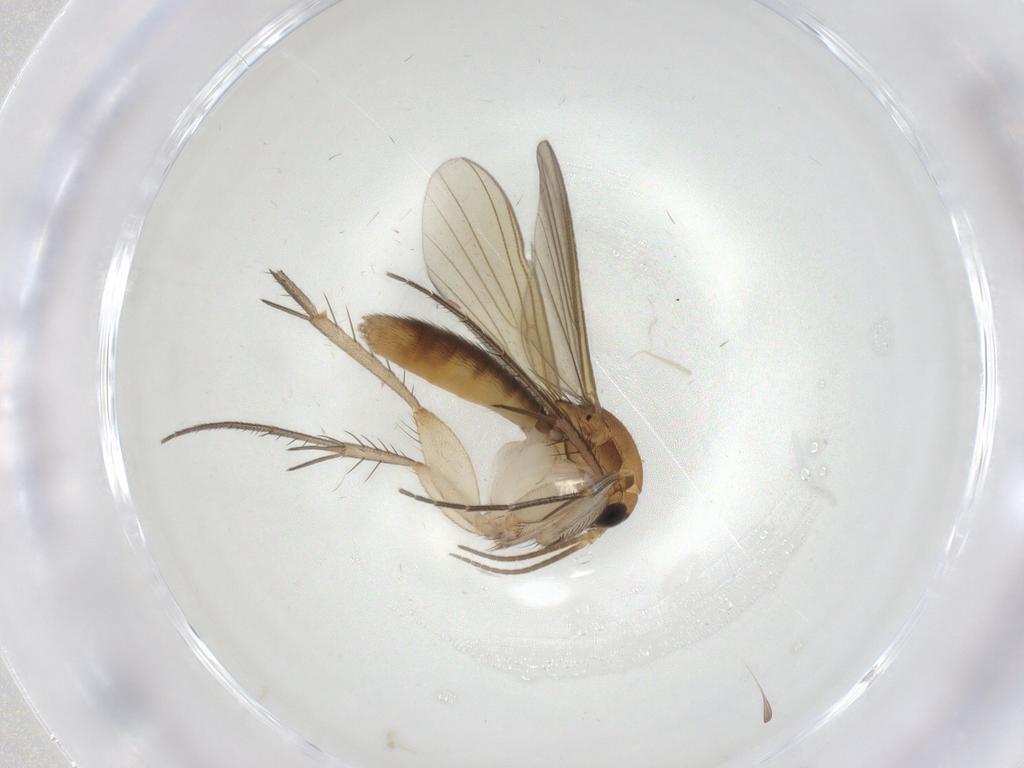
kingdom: Animalia
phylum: Arthropoda
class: Insecta
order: Diptera
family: Mycetophilidae
